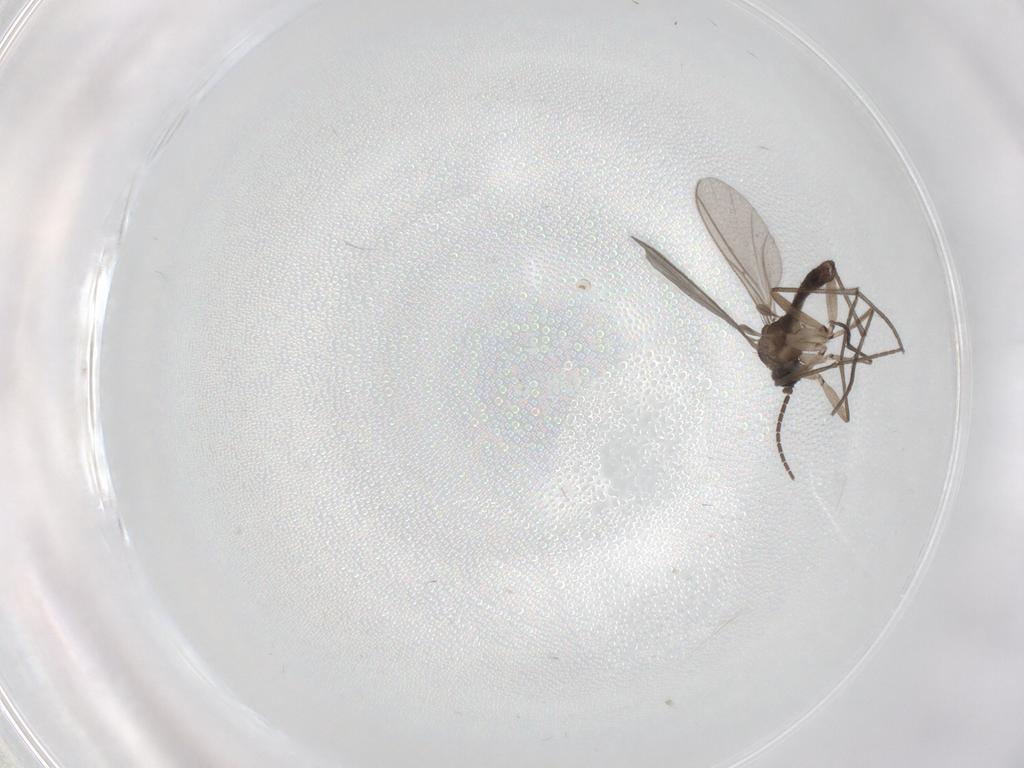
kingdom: Animalia
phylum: Arthropoda
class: Insecta
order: Diptera
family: Sciaridae
